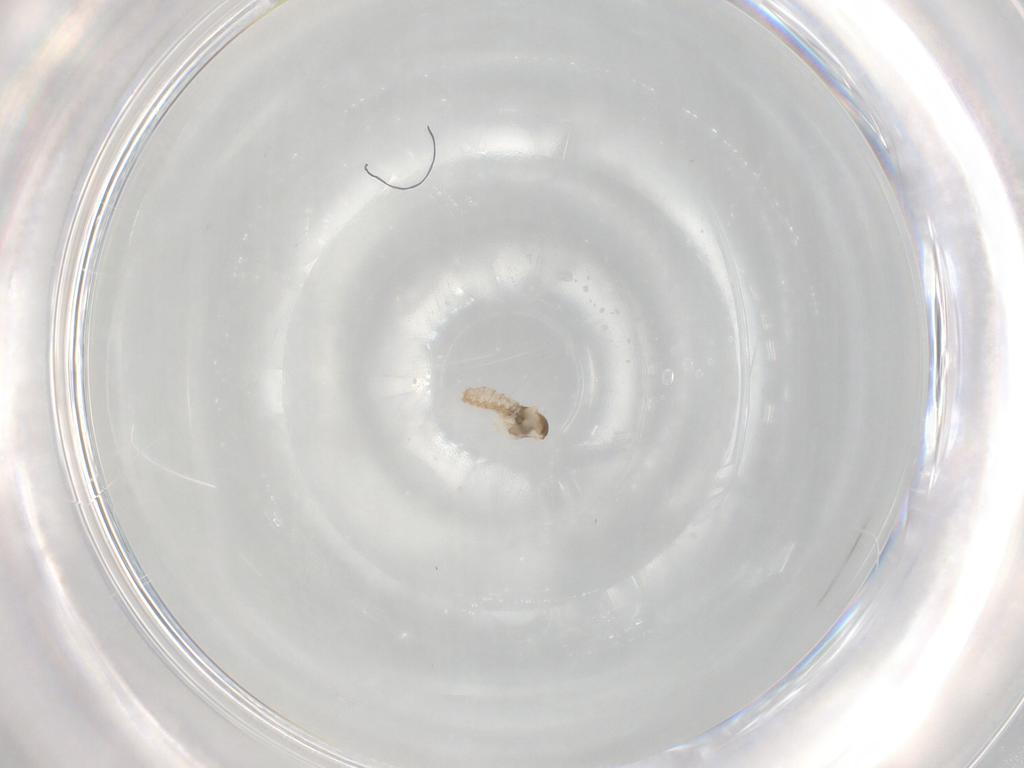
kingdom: Animalia
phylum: Arthropoda
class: Insecta
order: Diptera
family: Cecidomyiidae
